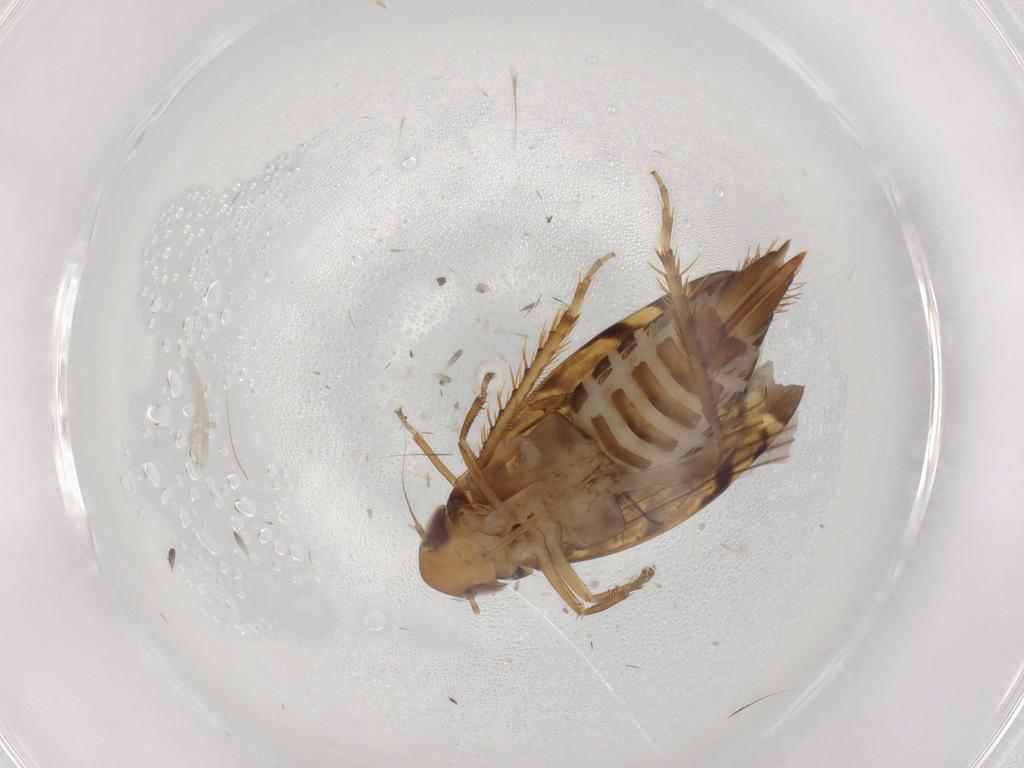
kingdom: Animalia
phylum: Arthropoda
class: Insecta
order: Hemiptera
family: Cicadellidae
